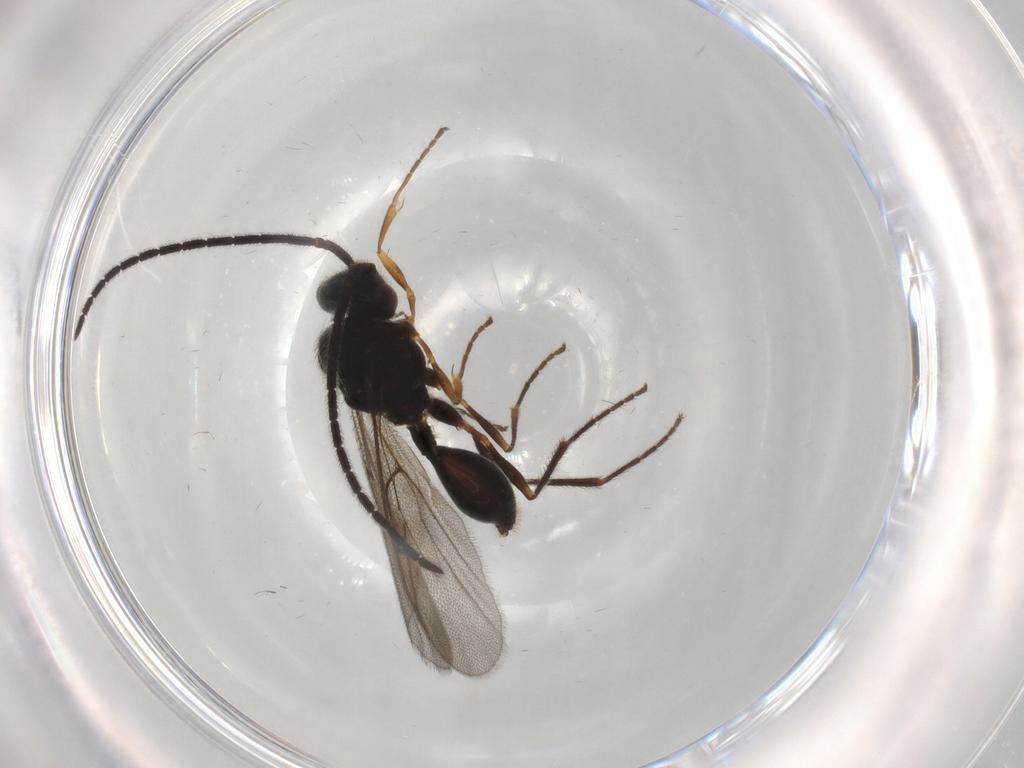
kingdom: Animalia
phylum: Arthropoda
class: Insecta
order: Hymenoptera
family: Diapriidae
